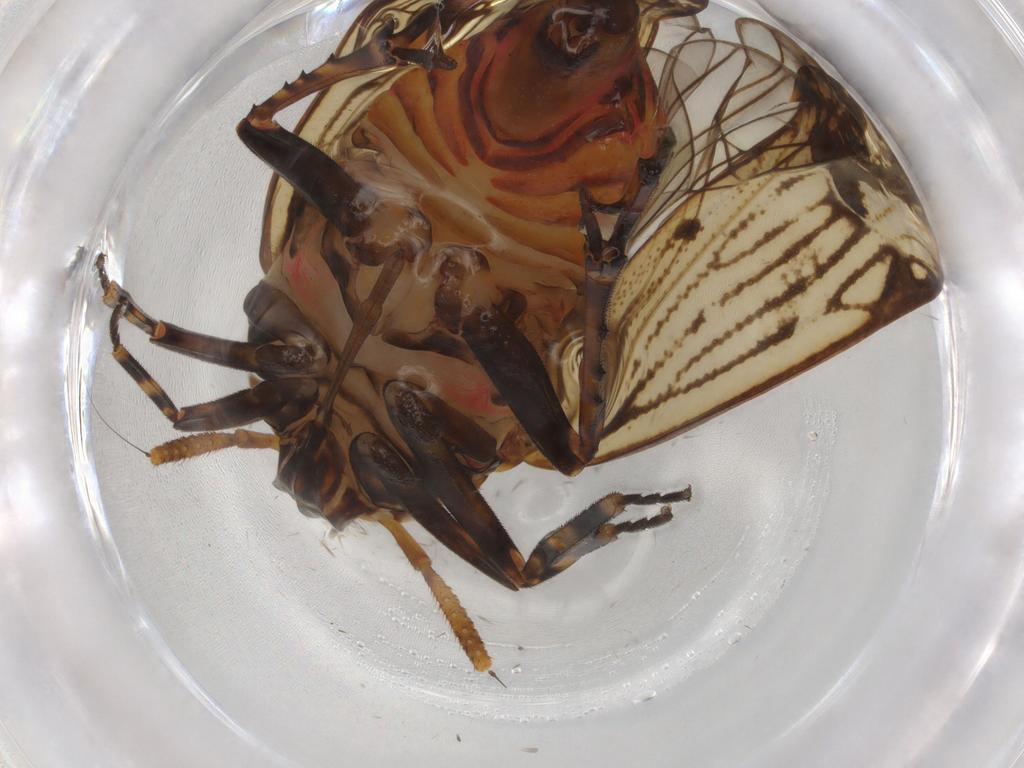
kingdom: Animalia
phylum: Arthropoda
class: Insecta
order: Hemiptera
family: Delphacidae
